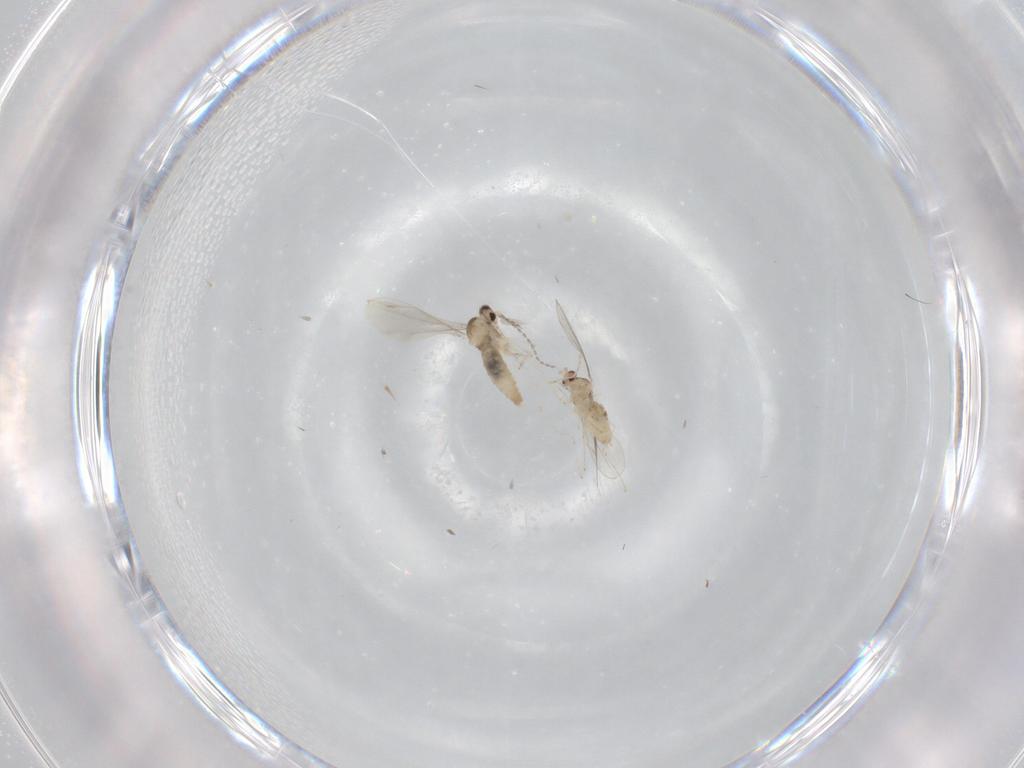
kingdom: Animalia
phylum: Arthropoda
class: Insecta
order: Diptera
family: Cecidomyiidae
